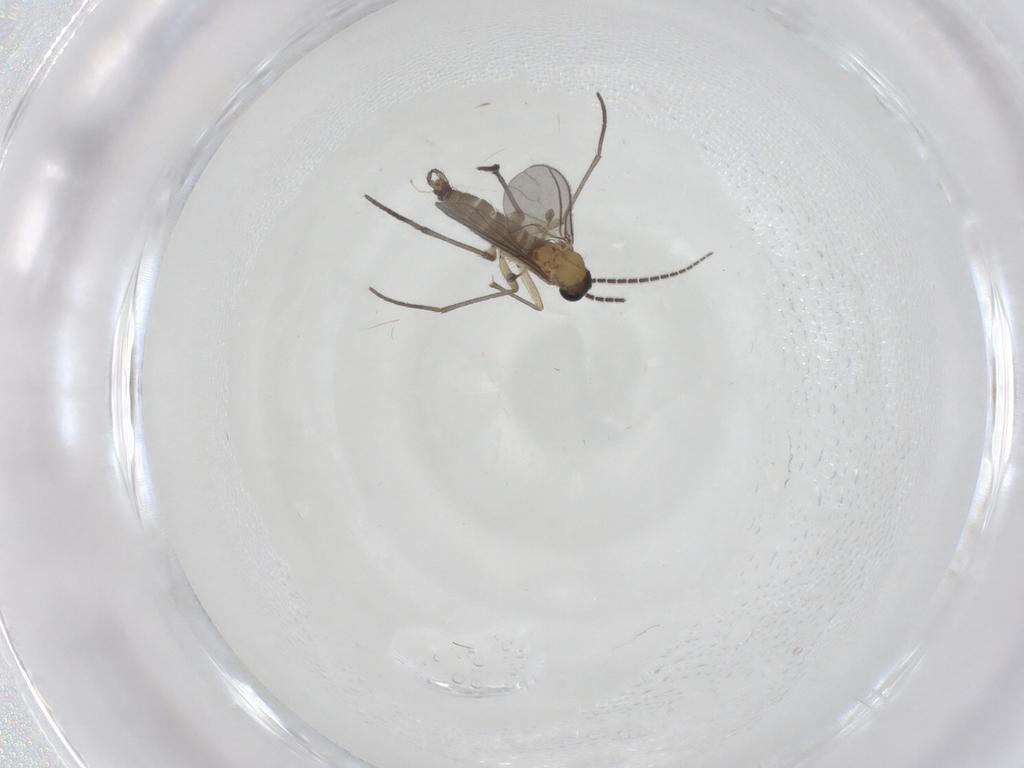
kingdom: Animalia
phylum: Arthropoda
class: Insecta
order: Diptera
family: Sciaridae
